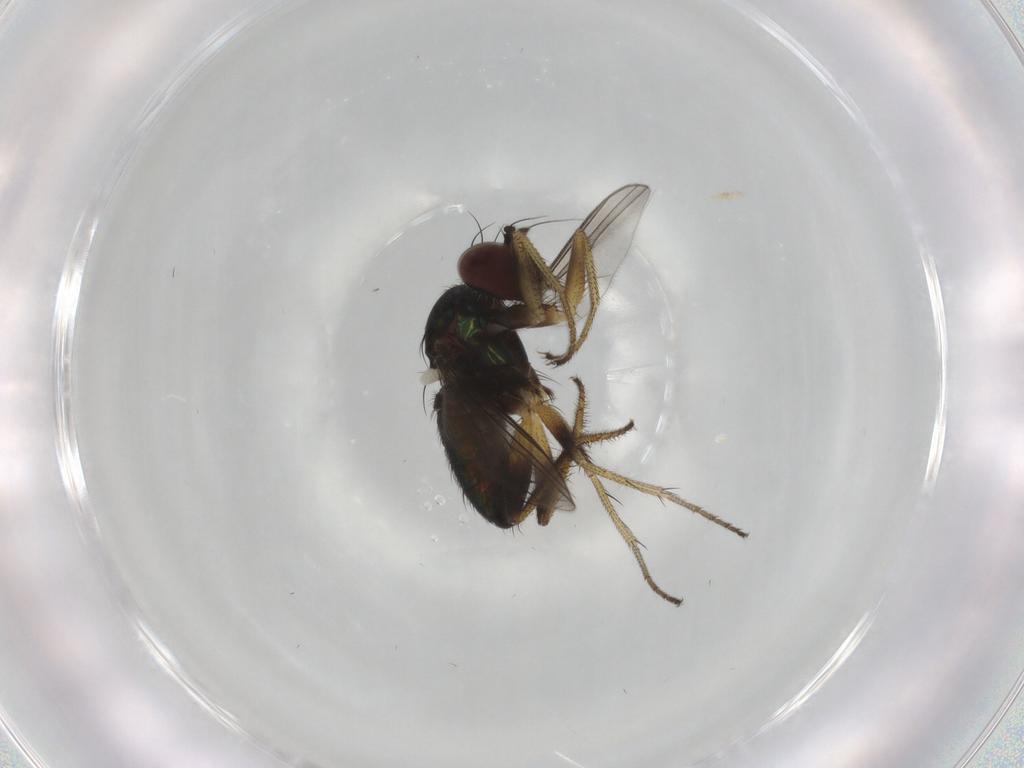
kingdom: Animalia
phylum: Arthropoda
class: Insecta
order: Diptera
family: Dolichopodidae
